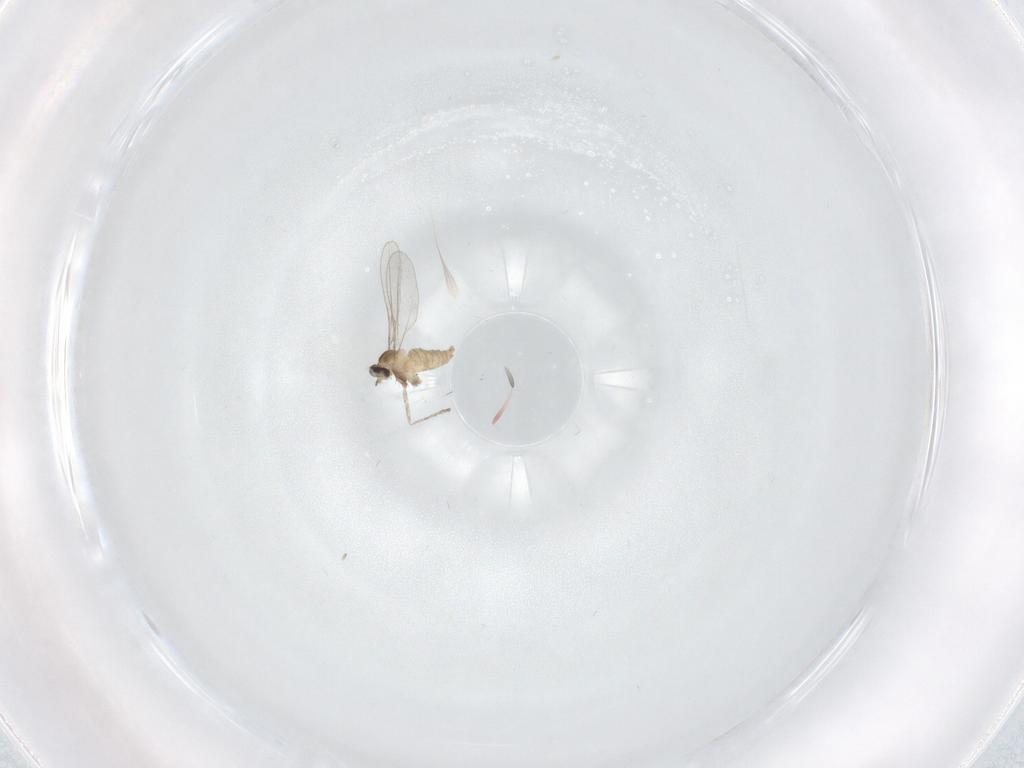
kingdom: Animalia
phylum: Arthropoda
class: Insecta
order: Diptera
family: Cecidomyiidae
